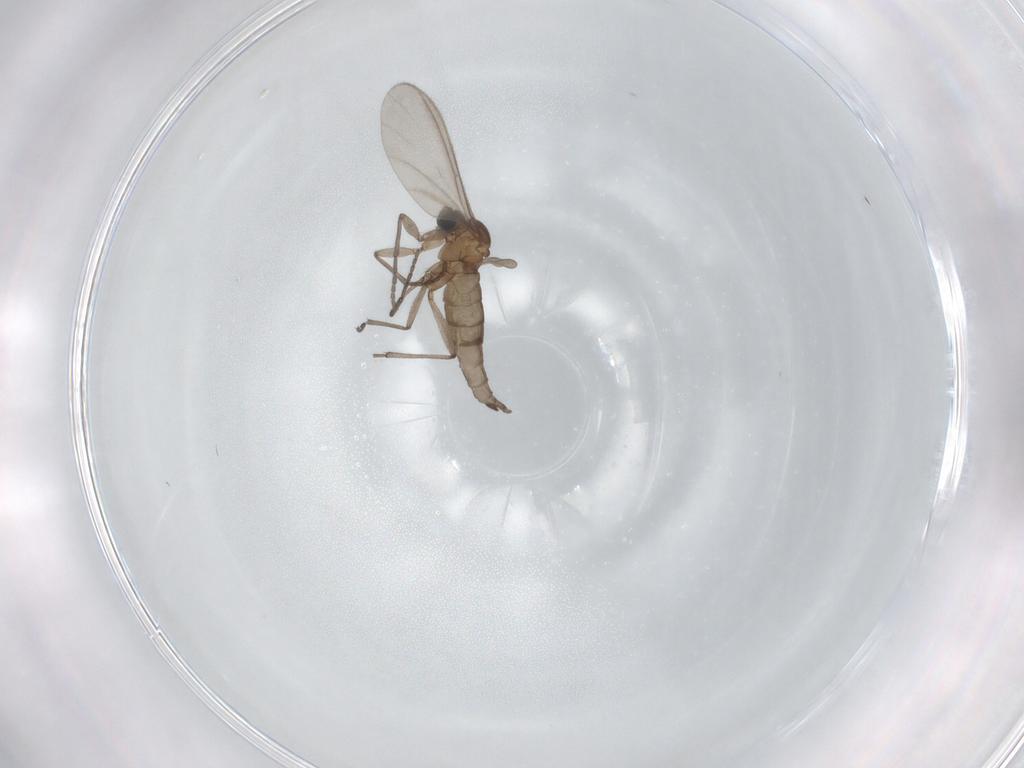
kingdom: Animalia
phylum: Arthropoda
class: Insecta
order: Diptera
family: Sciaridae
